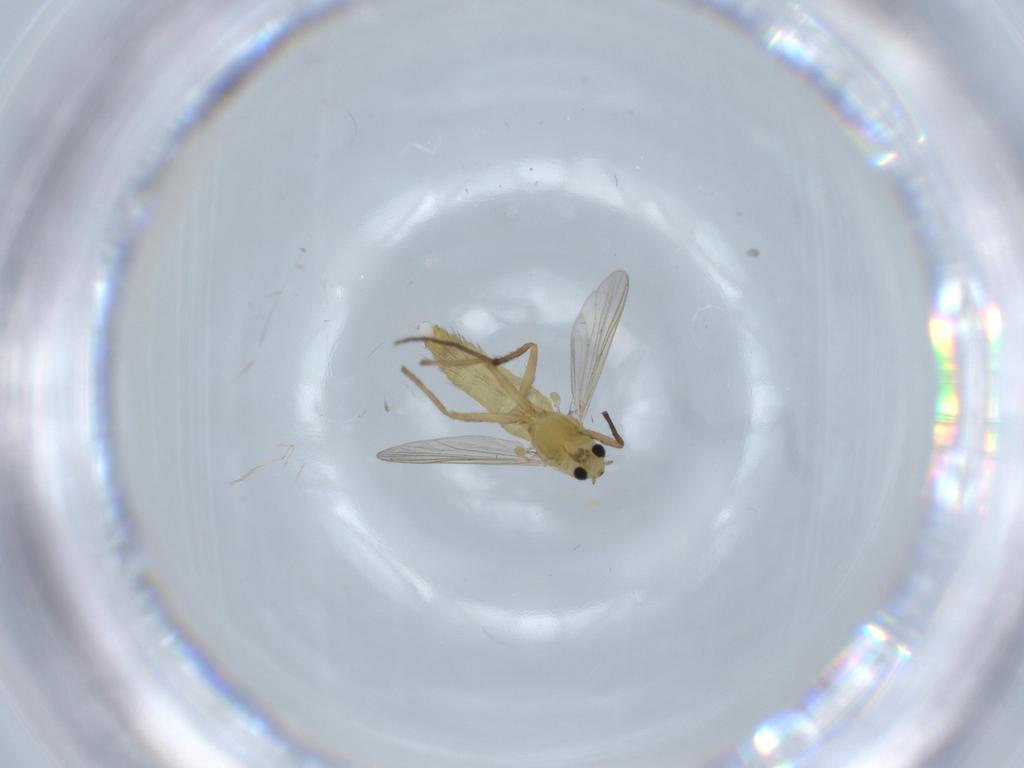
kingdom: Animalia
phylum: Arthropoda
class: Insecta
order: Diptera
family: Chironomidae
